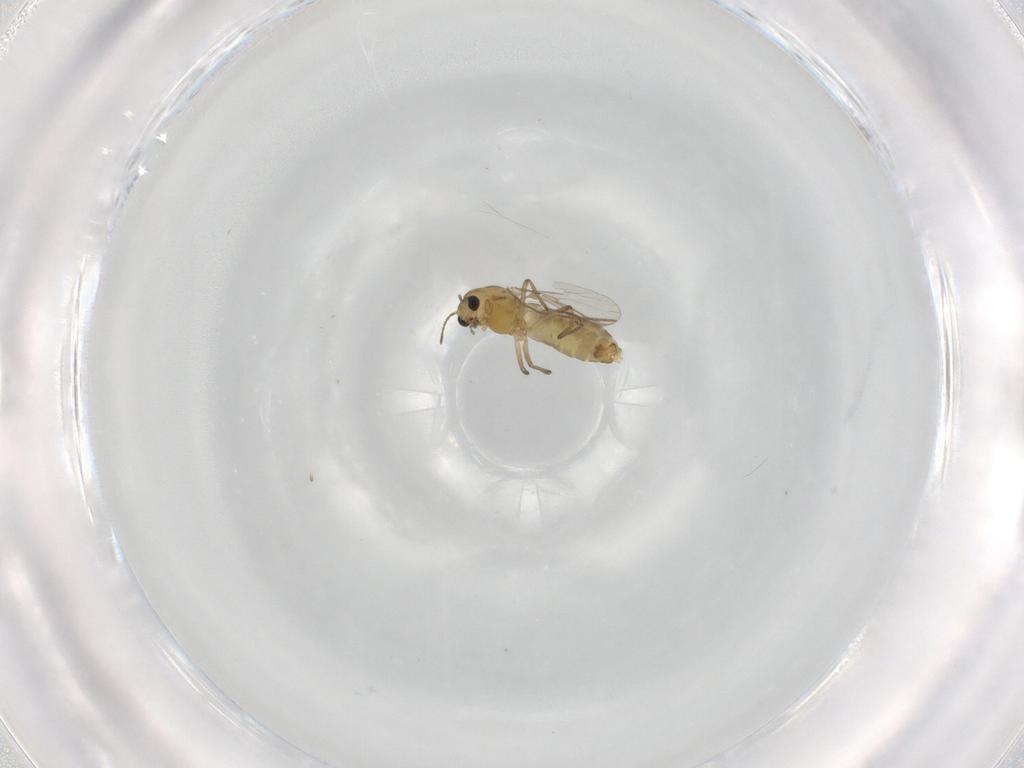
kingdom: Animalia
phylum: Arthropoda
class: Insecta
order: Diptera
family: Chironomidae
